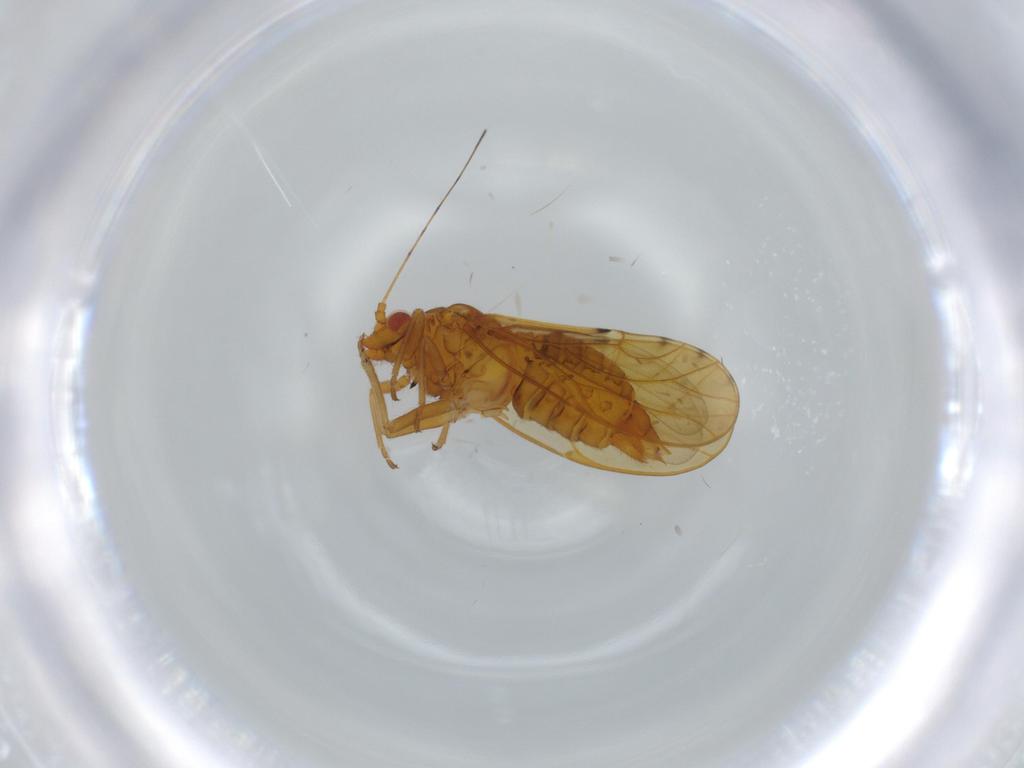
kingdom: Animalia
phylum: Arthropoda
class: Insecta
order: Hemiptera
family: Psylloidea_incertae_sedis
